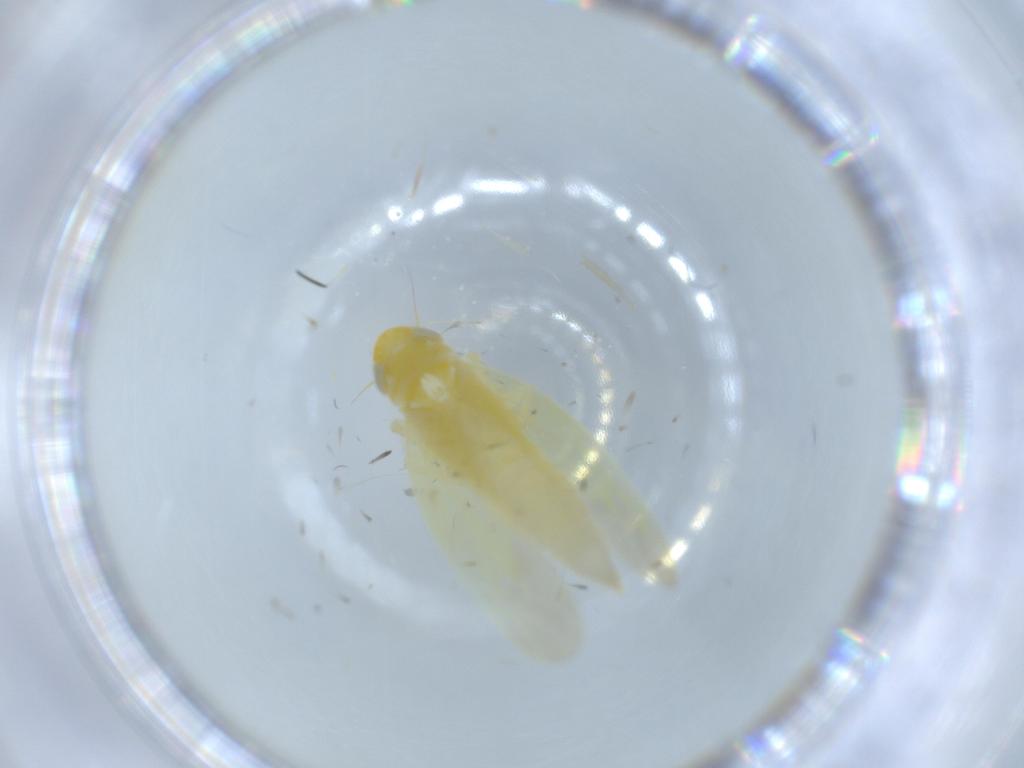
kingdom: Animalia
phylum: Arthropoda
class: Insecta
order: Hemiptera
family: Cicadellidae
